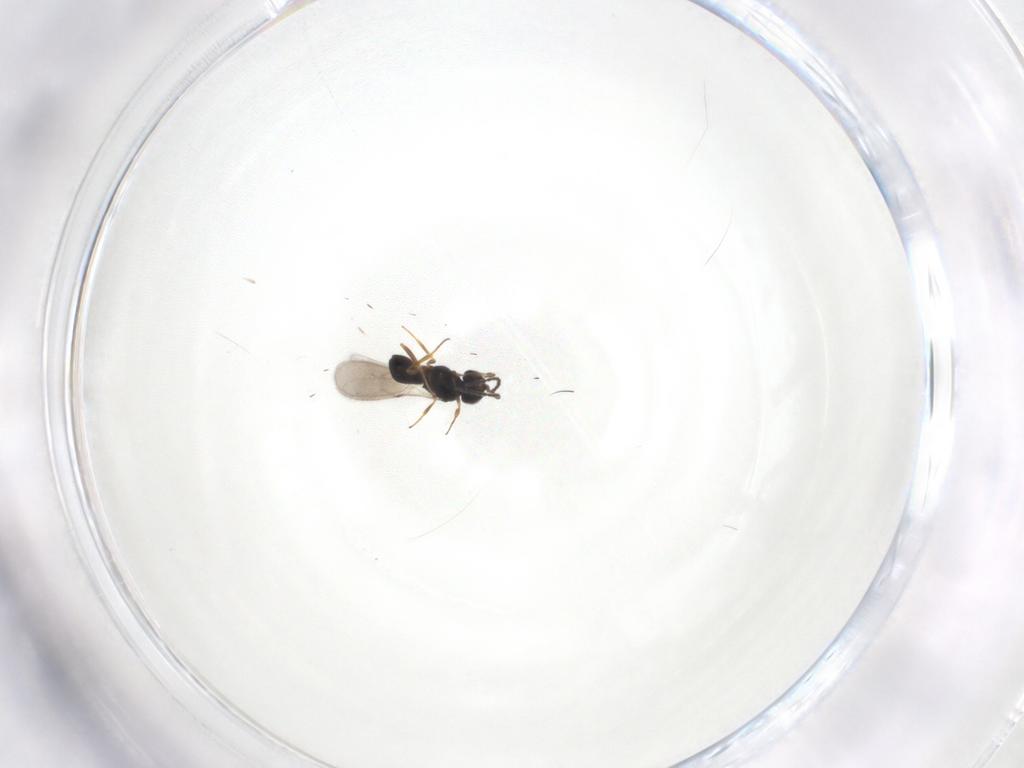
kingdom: Animalia
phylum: Arthropoda
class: Insecta
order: Hymenoptera
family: Scelionidae
